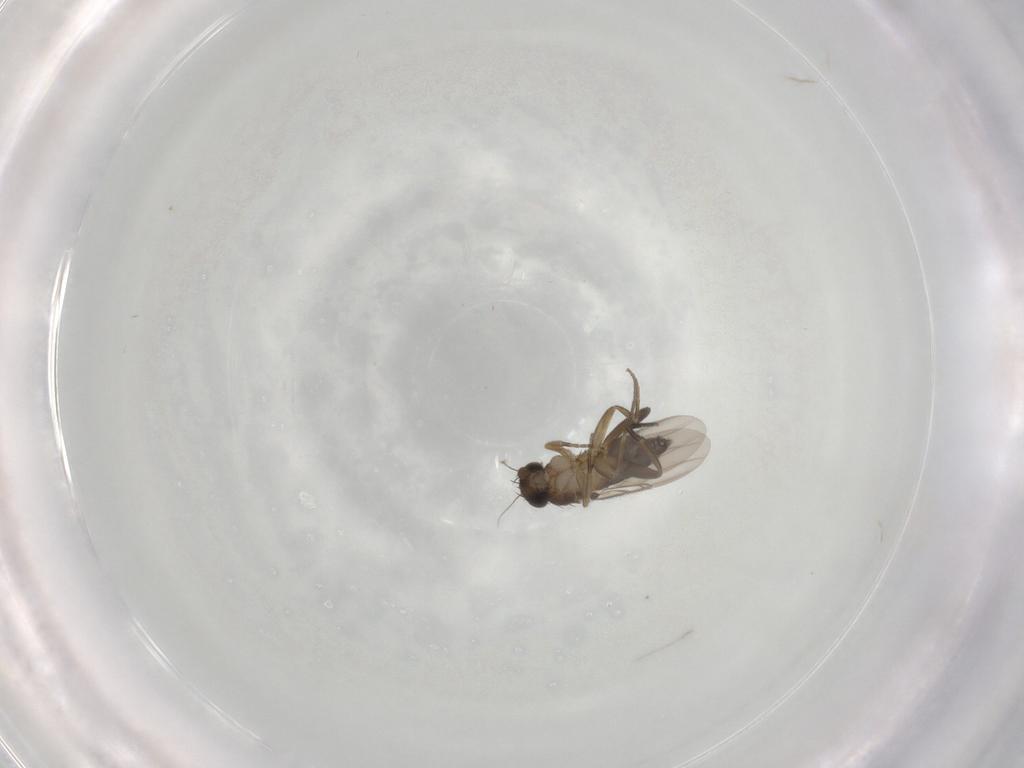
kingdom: Animalia
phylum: Arthropoda
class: Insecta
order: Diptera
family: Phoridae
